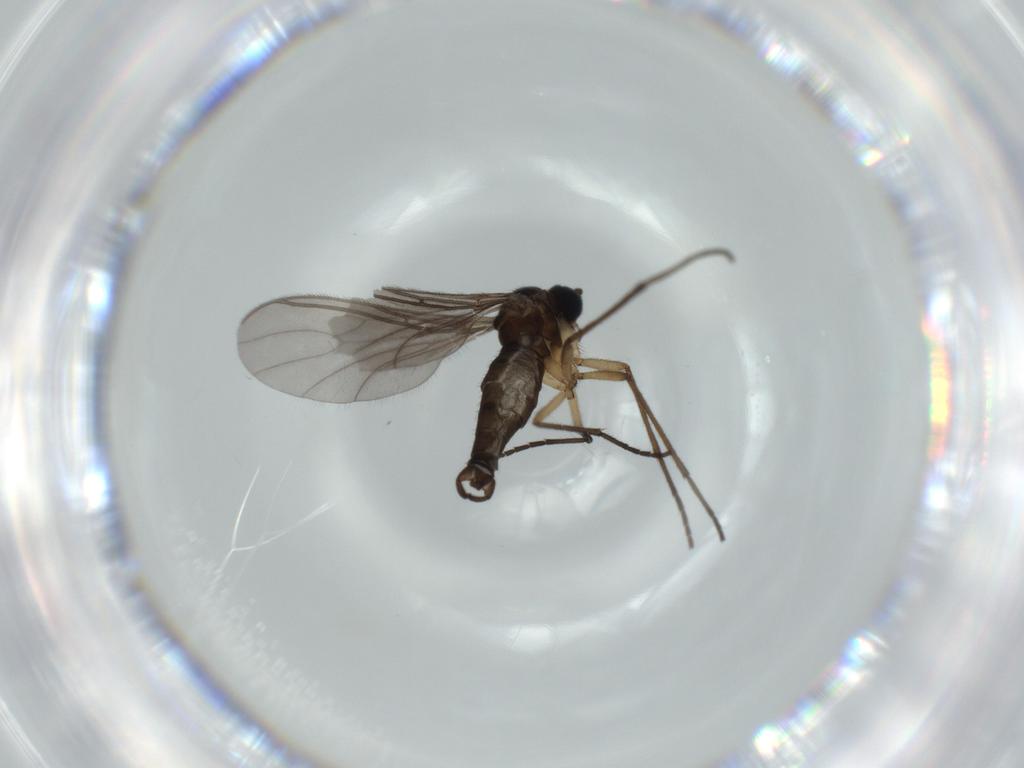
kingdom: Animalia
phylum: Arthropoda
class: Insecta
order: Diptera
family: Sciaridae
